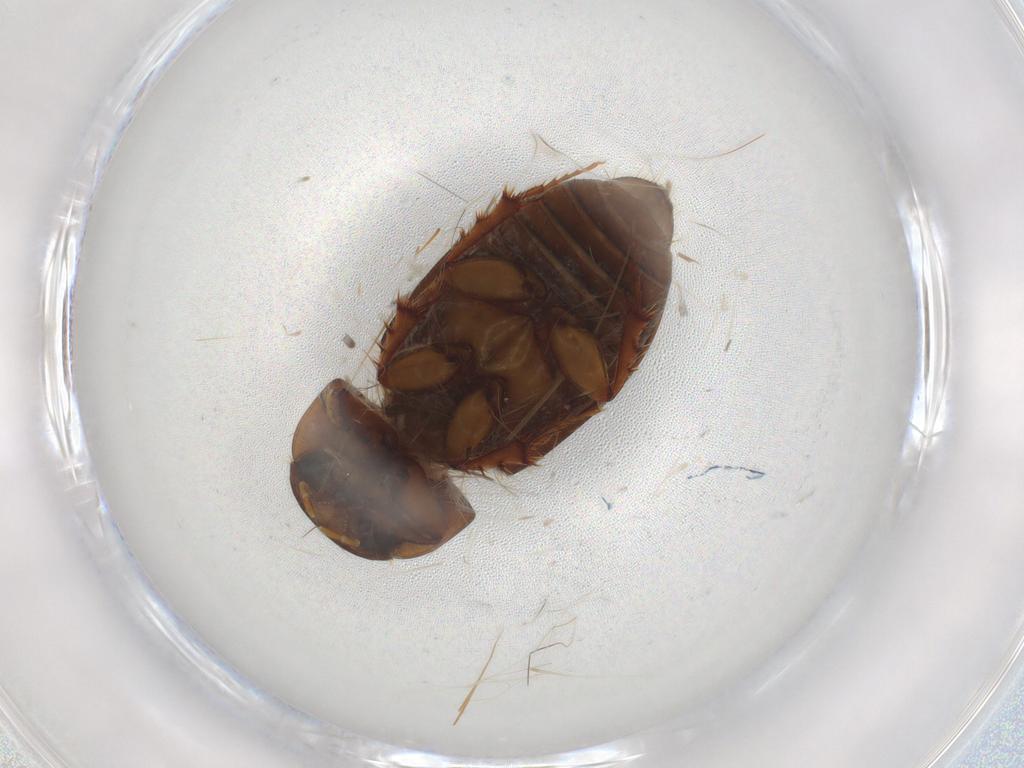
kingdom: Animalia
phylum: Arthropoda
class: Insecta
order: Coleoptera
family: Scarabaeidae
